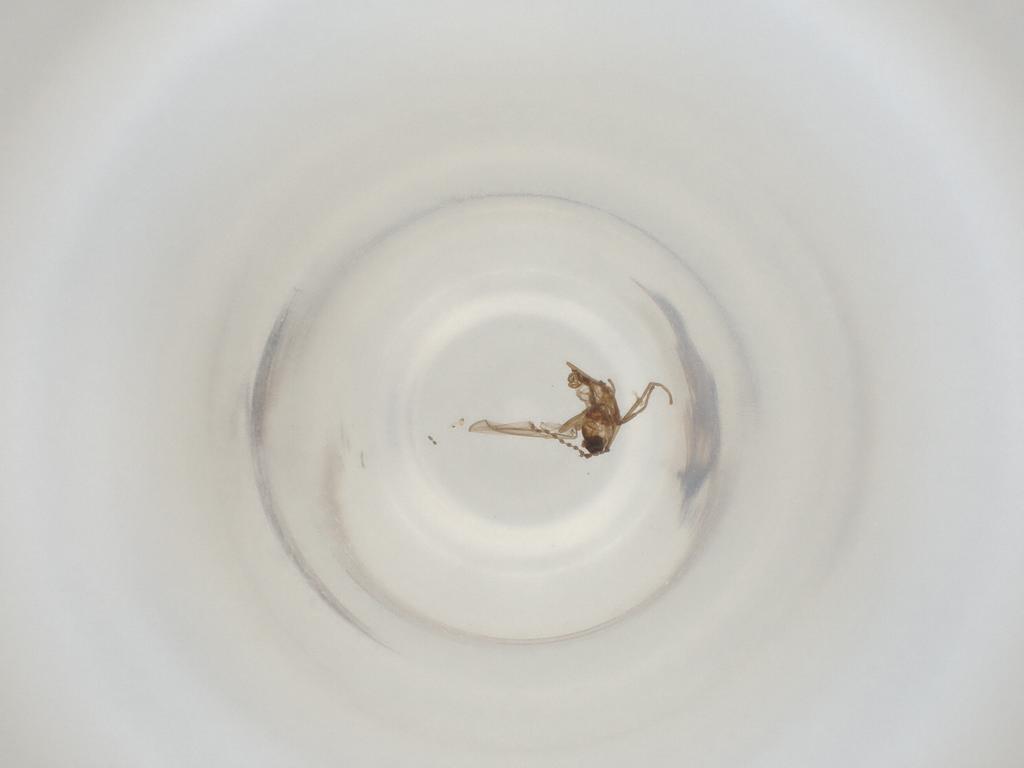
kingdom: Animalia
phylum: Arthropoda
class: Insecta
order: Diptera
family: Cecidomyiidae
